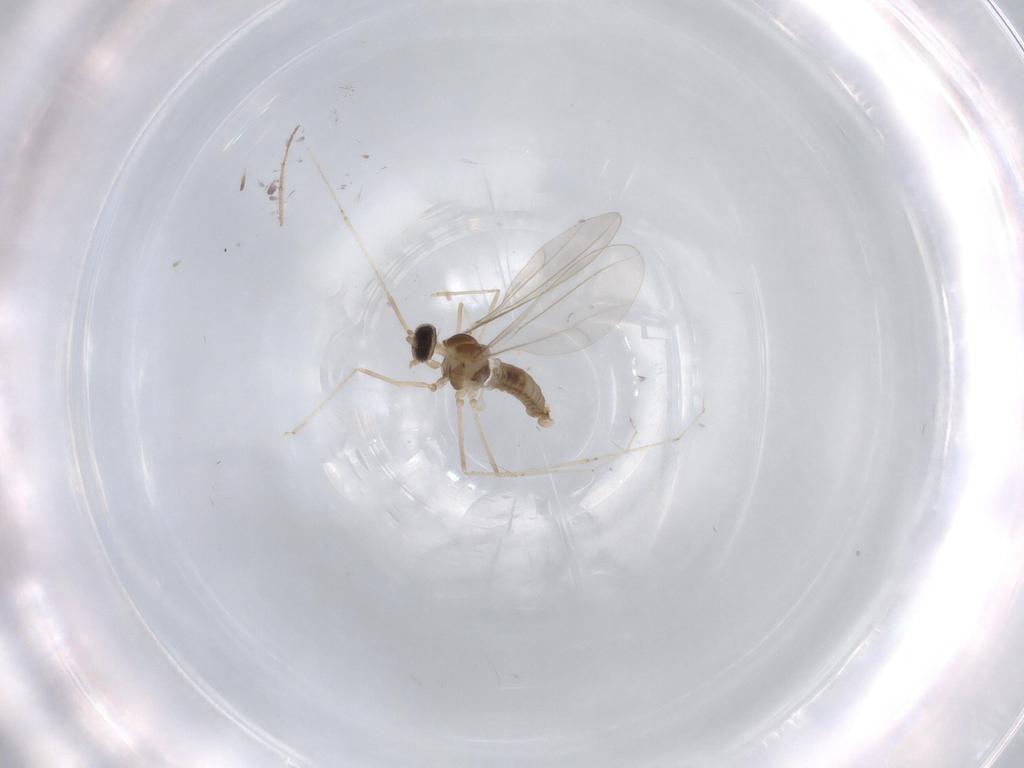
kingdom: Animalia
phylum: Arthropoda
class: Insecta
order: Diptera
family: Cecidomyiidae
